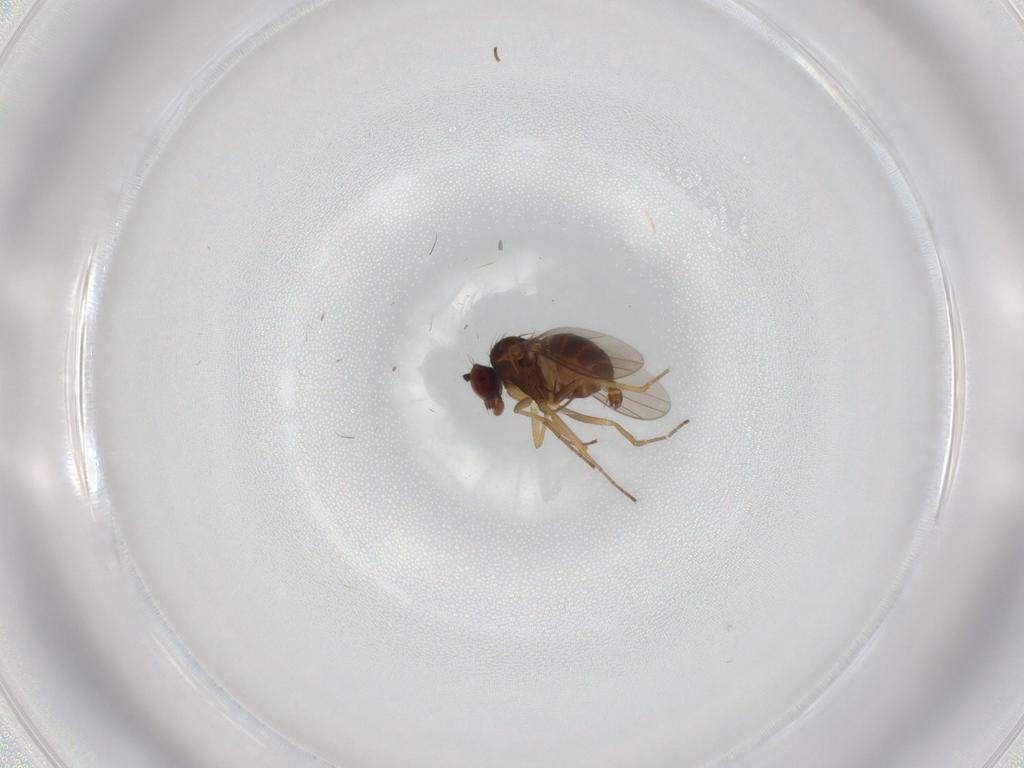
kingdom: Animalia
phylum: Arthropoda
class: Insecta
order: Diptera
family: Dolichopodidae
